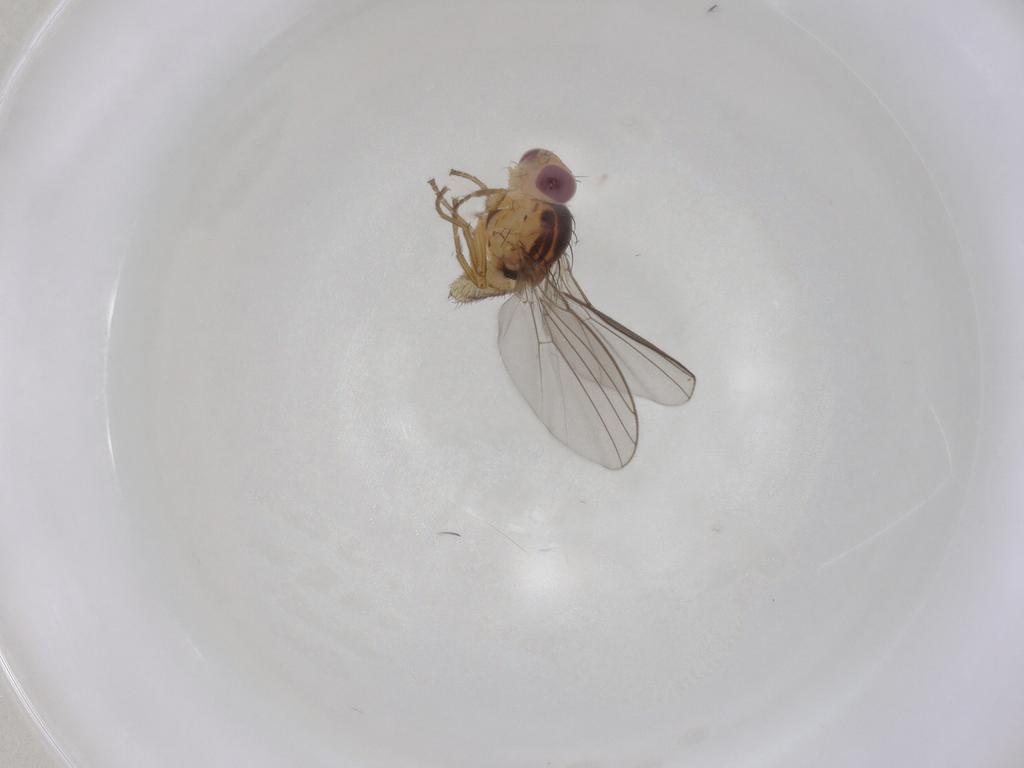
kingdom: Animalia
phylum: Arthropoda
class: Insecta
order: Diptera
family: Agromyzidae
